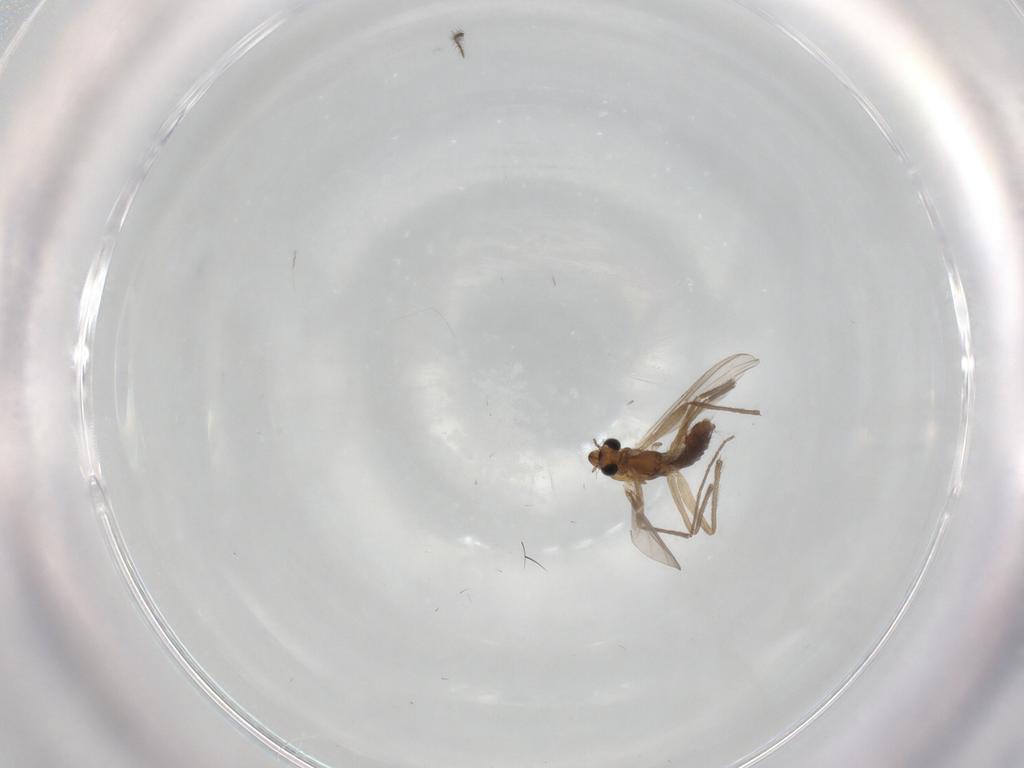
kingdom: Animalia
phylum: Arthropoda
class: Insecta
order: Diptera
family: Chironomidae
